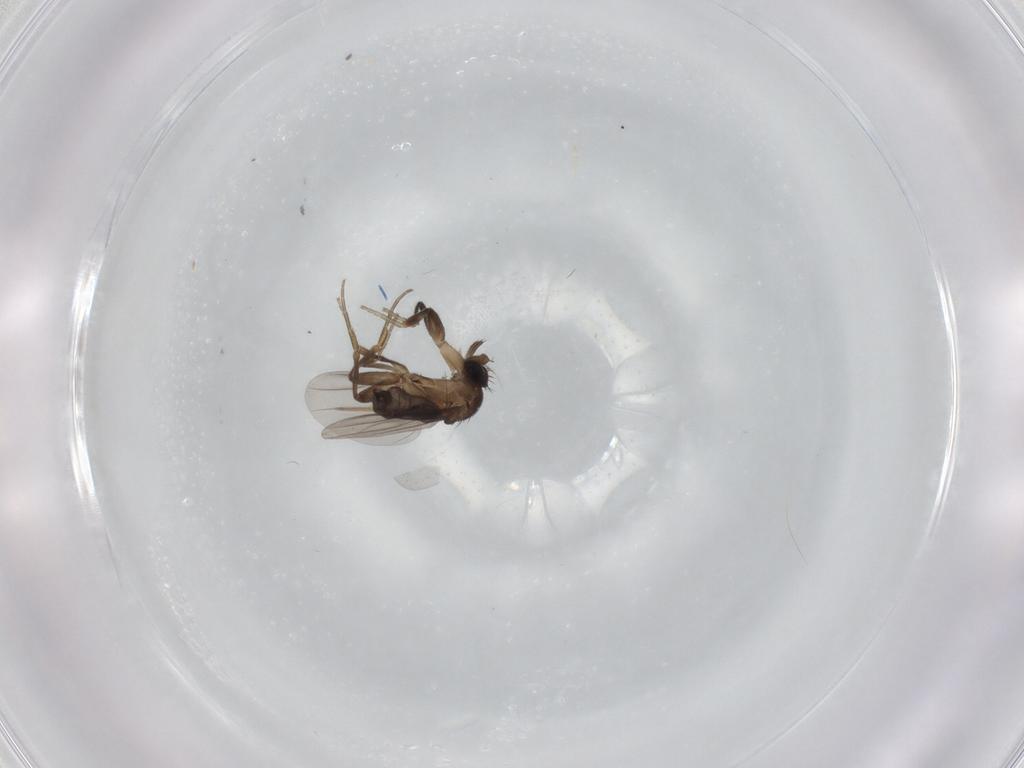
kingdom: Animalia
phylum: Arthropoda
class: Insecta
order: Diptera
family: Phoridae
